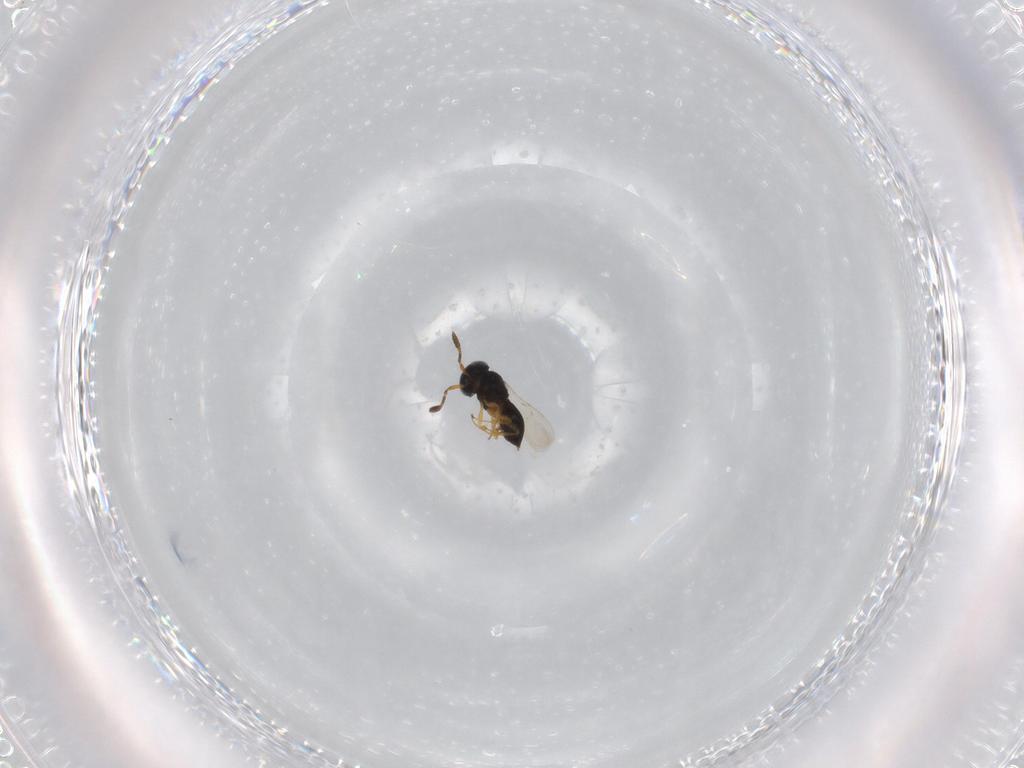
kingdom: Animalia
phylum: Arthropoda
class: Insecta
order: Hymenoptera
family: Scelionidae
